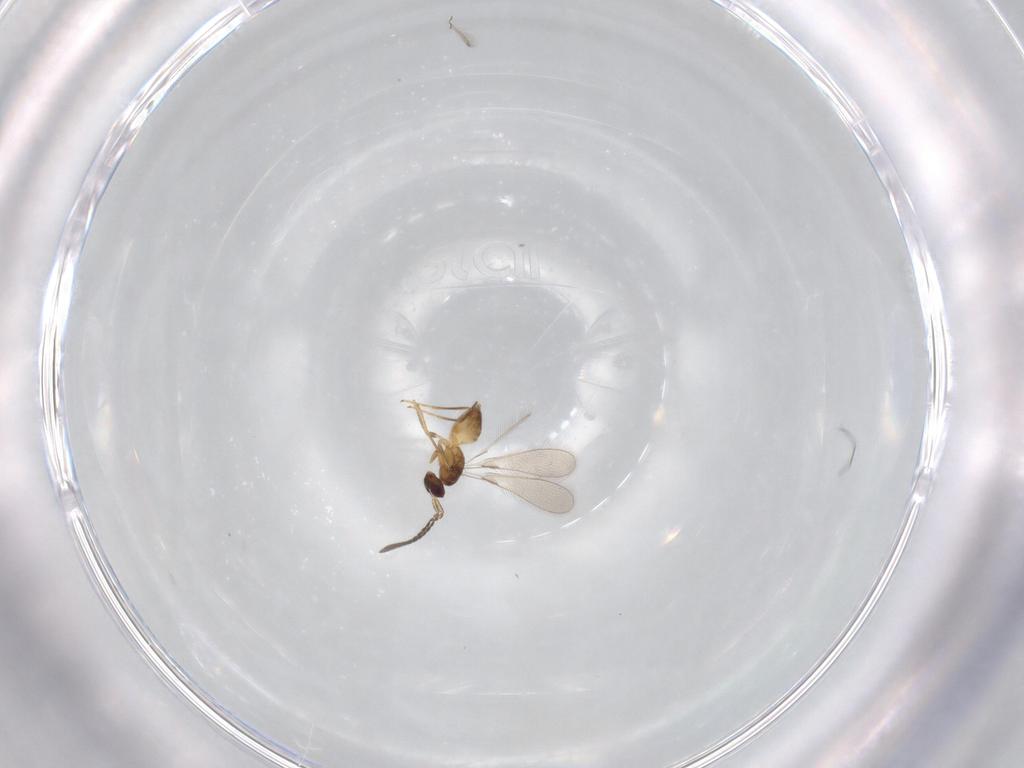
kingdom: Animalia
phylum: Arthropoda
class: Insecta
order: Hymenoptera
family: Mymaridae
